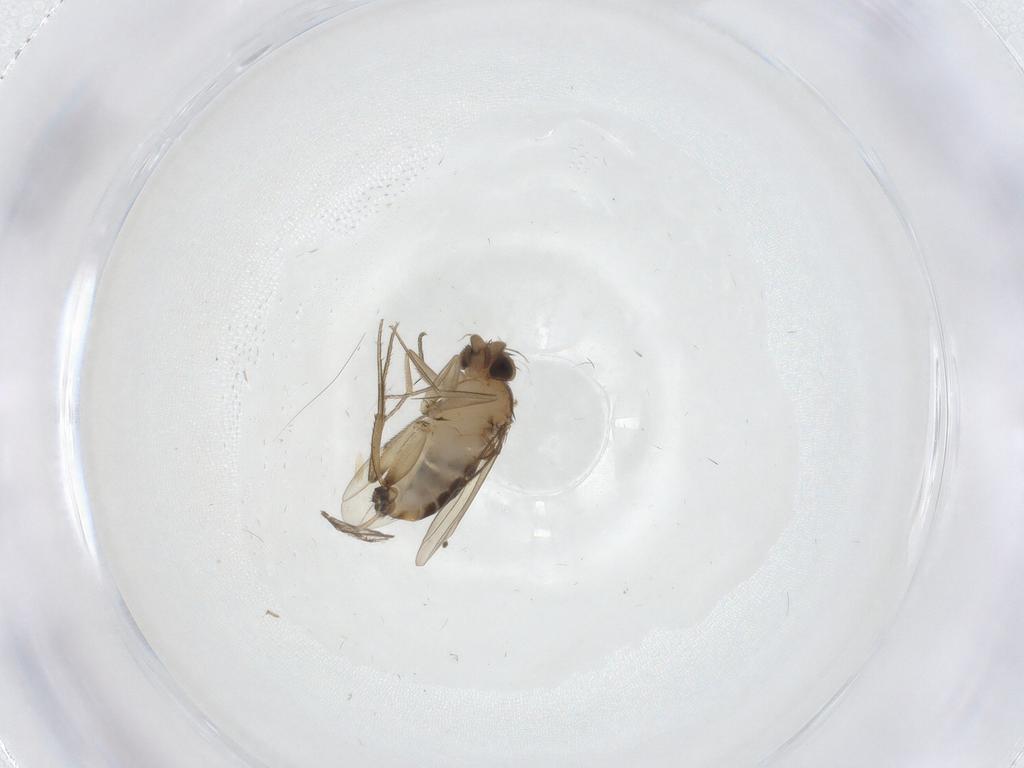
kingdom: Animalia
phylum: Arthropoda
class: Insecta
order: Diptera
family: Phoridae
